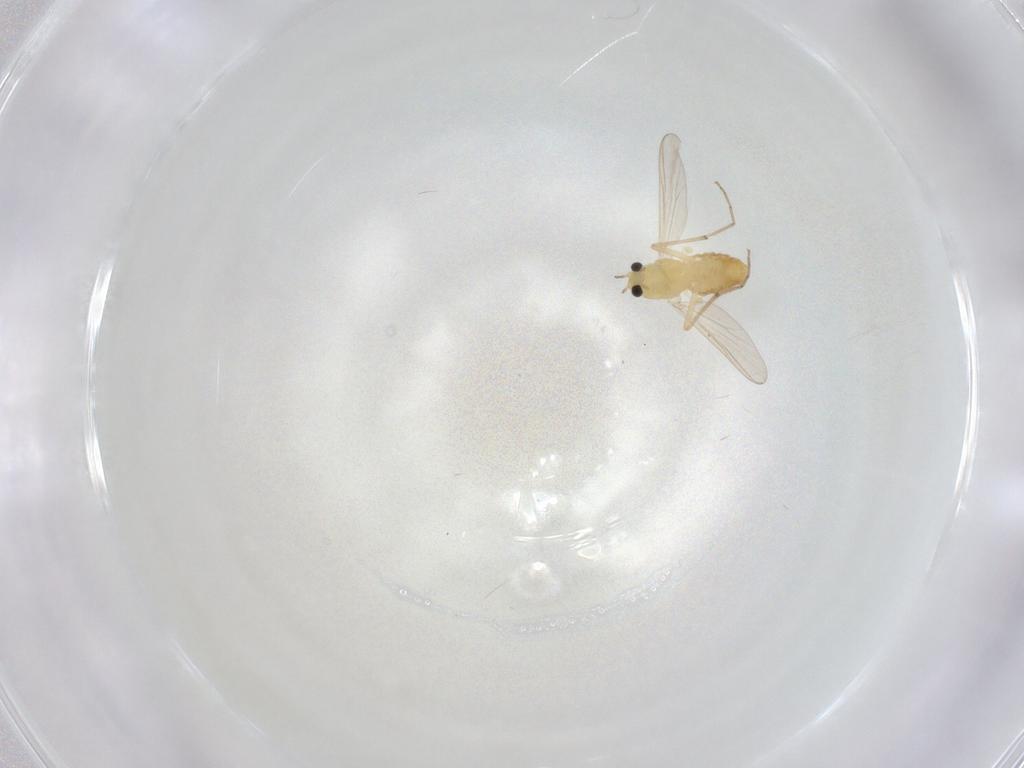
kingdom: Animalia
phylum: Arthropoda
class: Insecta
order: Diptera
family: Chironomidae
